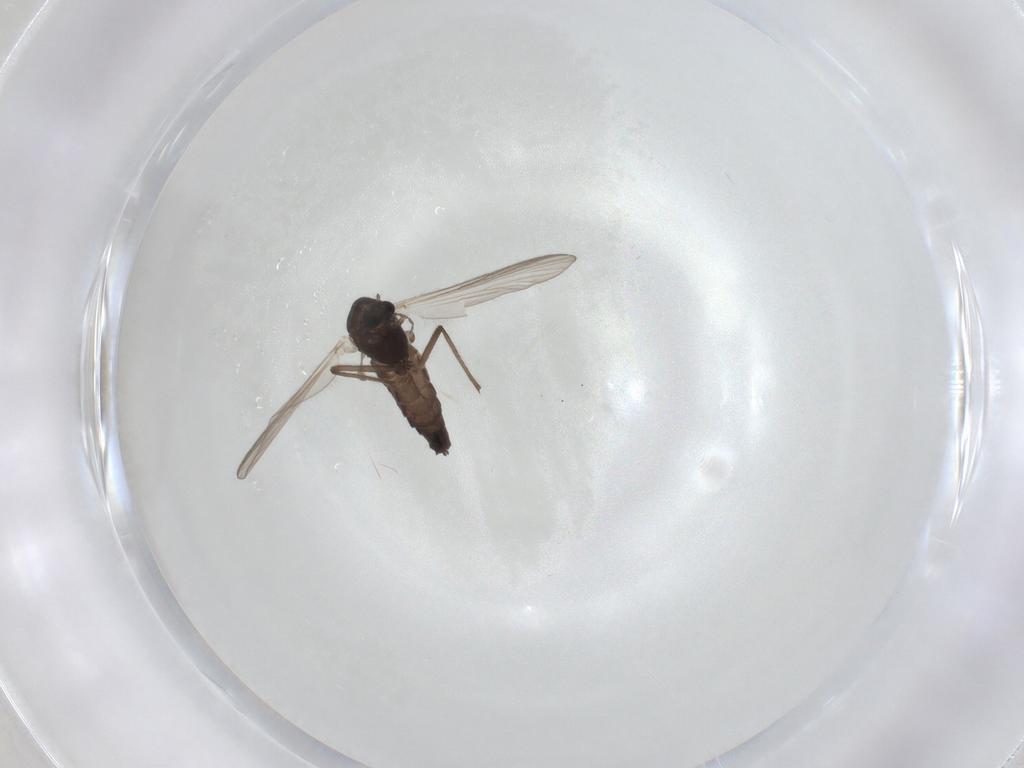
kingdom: Animalia
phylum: Arthropoda
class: Insecta
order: Diptera
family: Chironomidae
